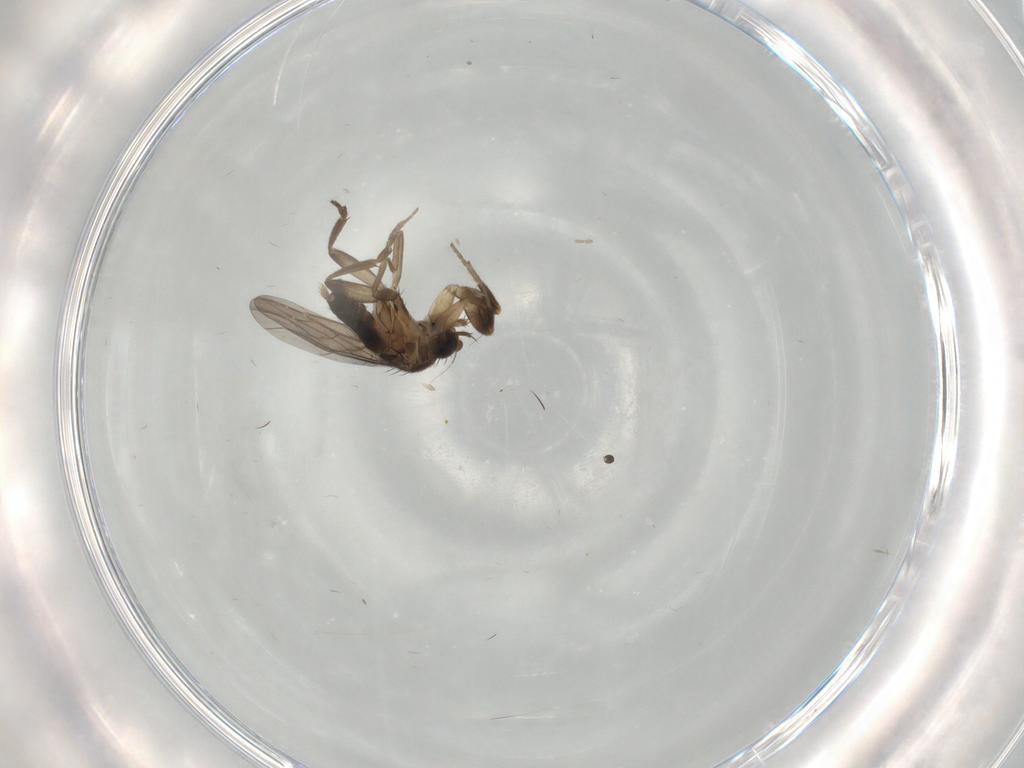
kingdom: Animalia
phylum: Arthropoda
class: Insecta
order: Diptera
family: Cecidomyiidae
